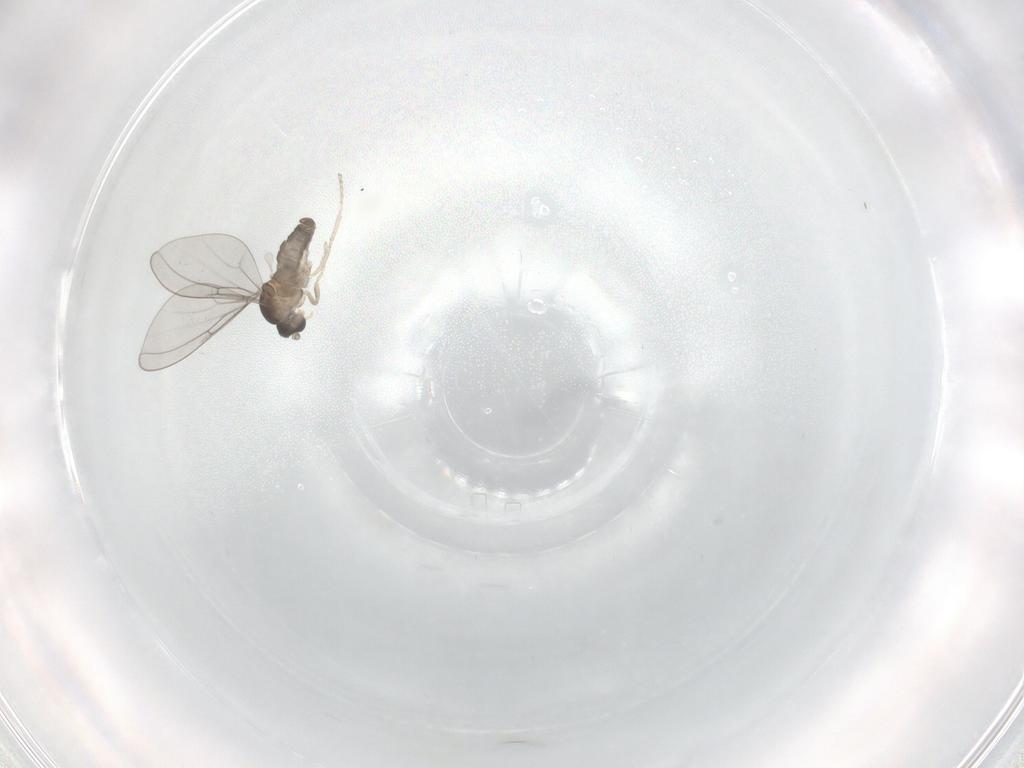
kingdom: Animalia
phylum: Arthropoda
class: Insecta
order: Diptera
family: Cecidomyiidae
